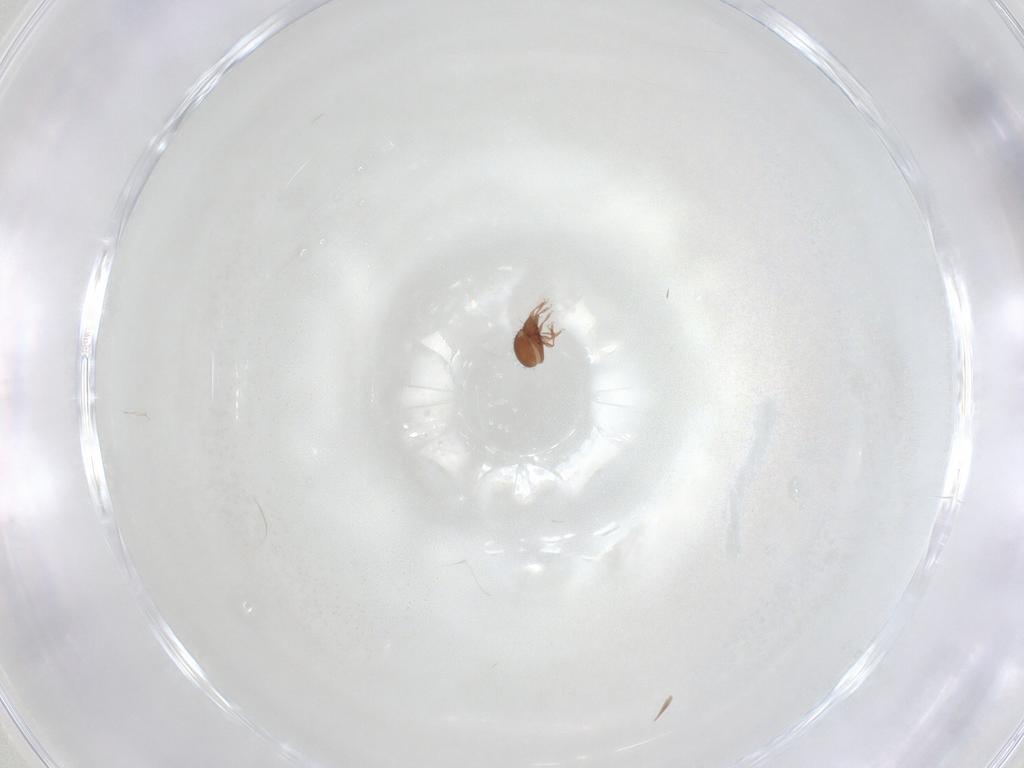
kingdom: Animalia
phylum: Arthropoda
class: Arachnida
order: Sarcoptiformes
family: Oribatulidae
